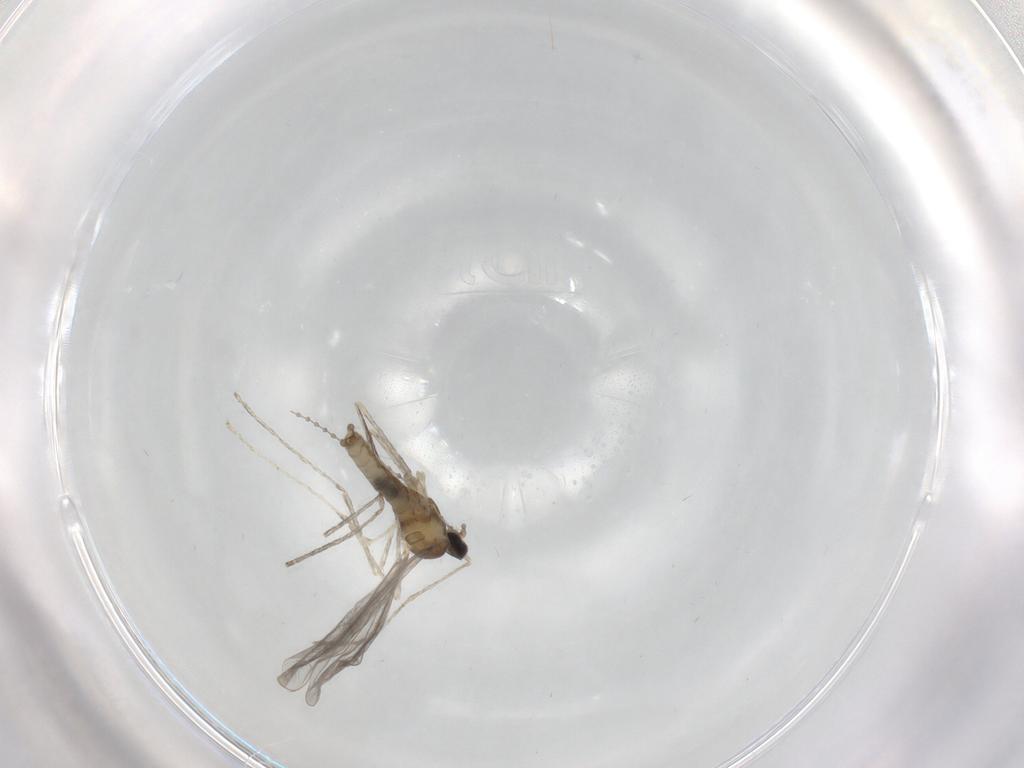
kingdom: Animalia
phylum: Arthropoda
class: Insecta
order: Diptera
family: Cecidomyiidae
